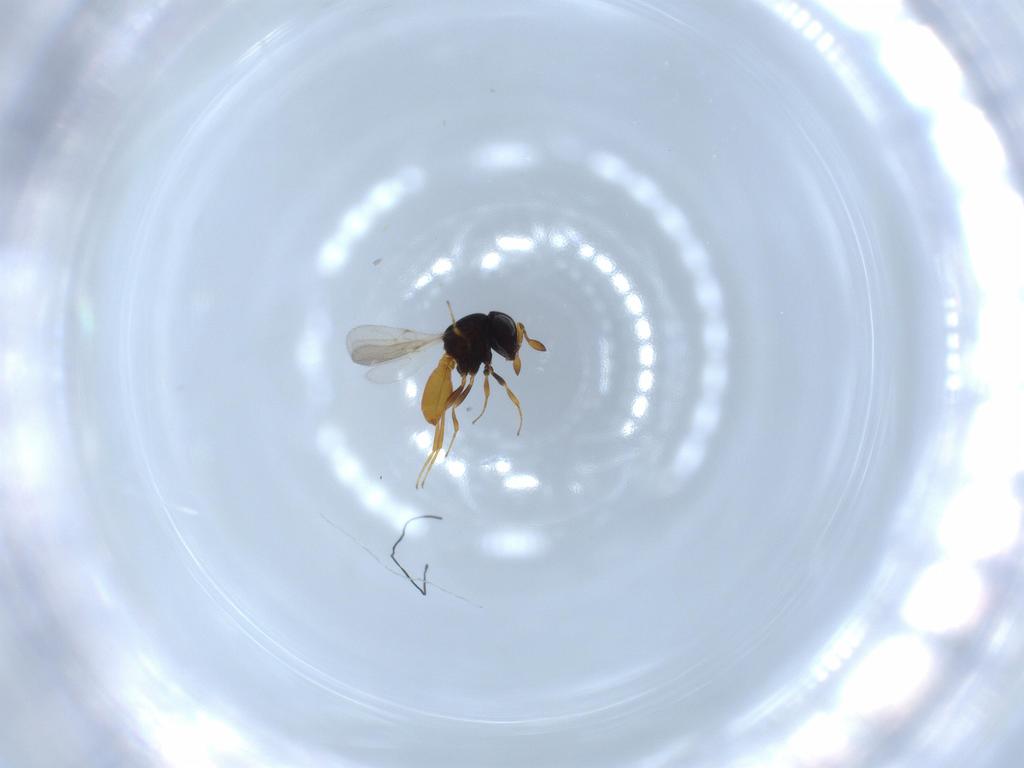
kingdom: Animalia
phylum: Arthropoda
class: Insecta
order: Hymenoptera
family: Scelionidae
